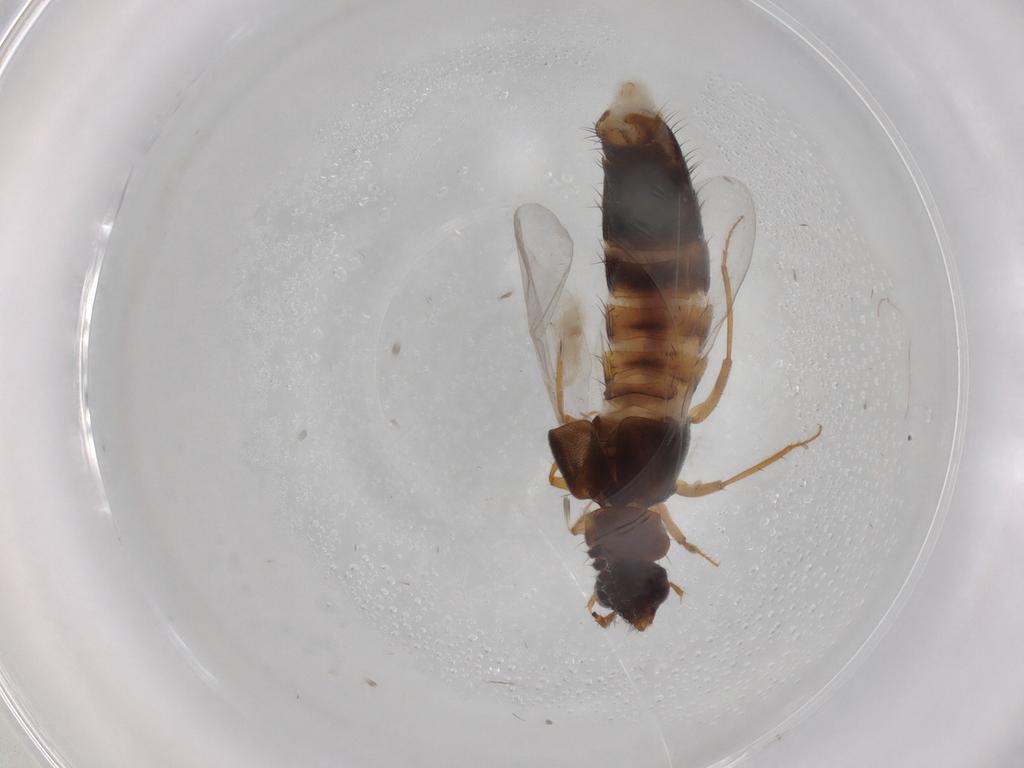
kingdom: Animalia
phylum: Arthropoda
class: Insecta
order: Coleoptera
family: Staphylinidae
